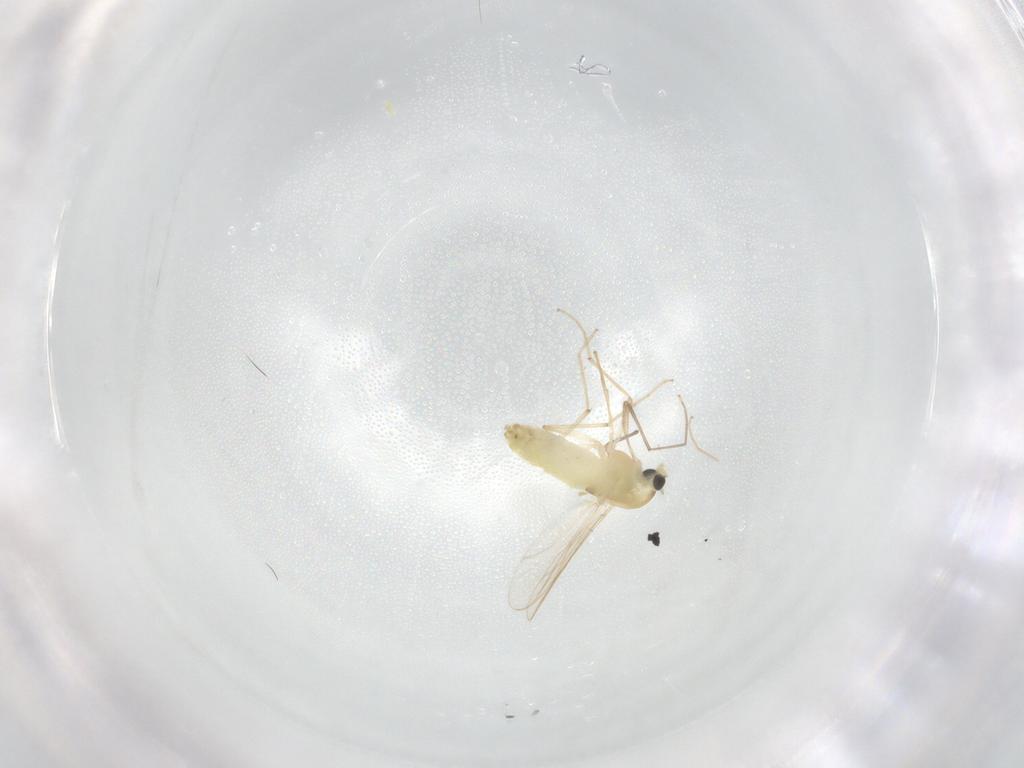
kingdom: Animalia
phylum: Arthropoda
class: Insecta
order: Diptera
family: Chironomidae
